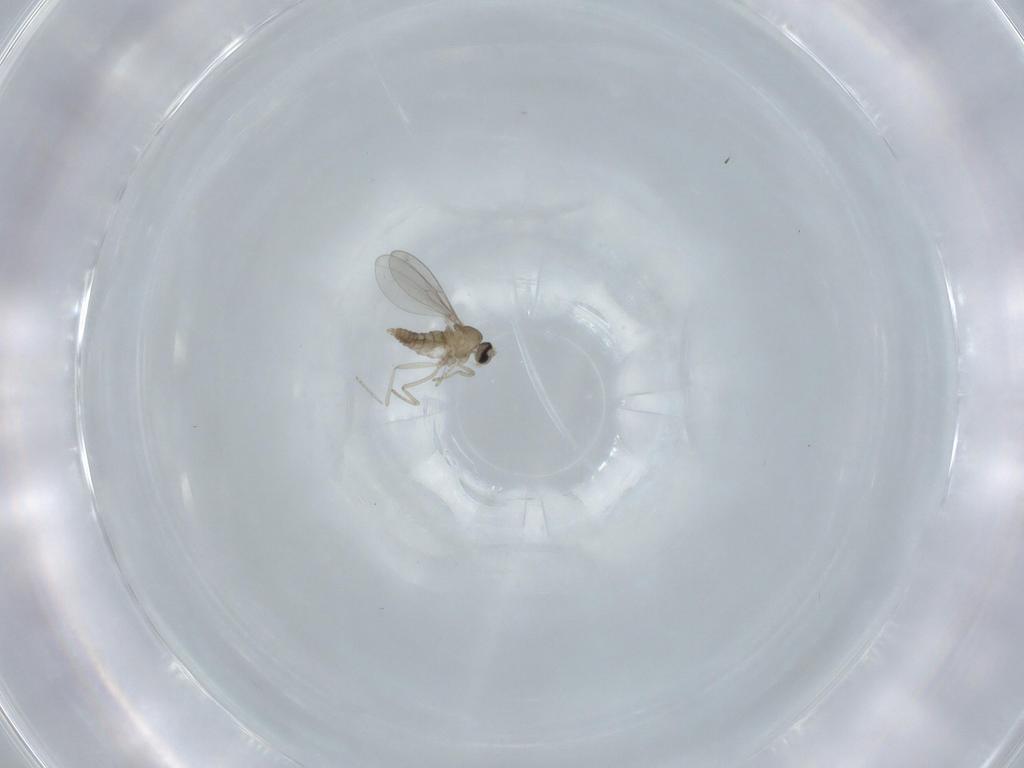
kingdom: Animalia
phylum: Arthropoda
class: Insecta
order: Diptera
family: Cecidomyiidae
